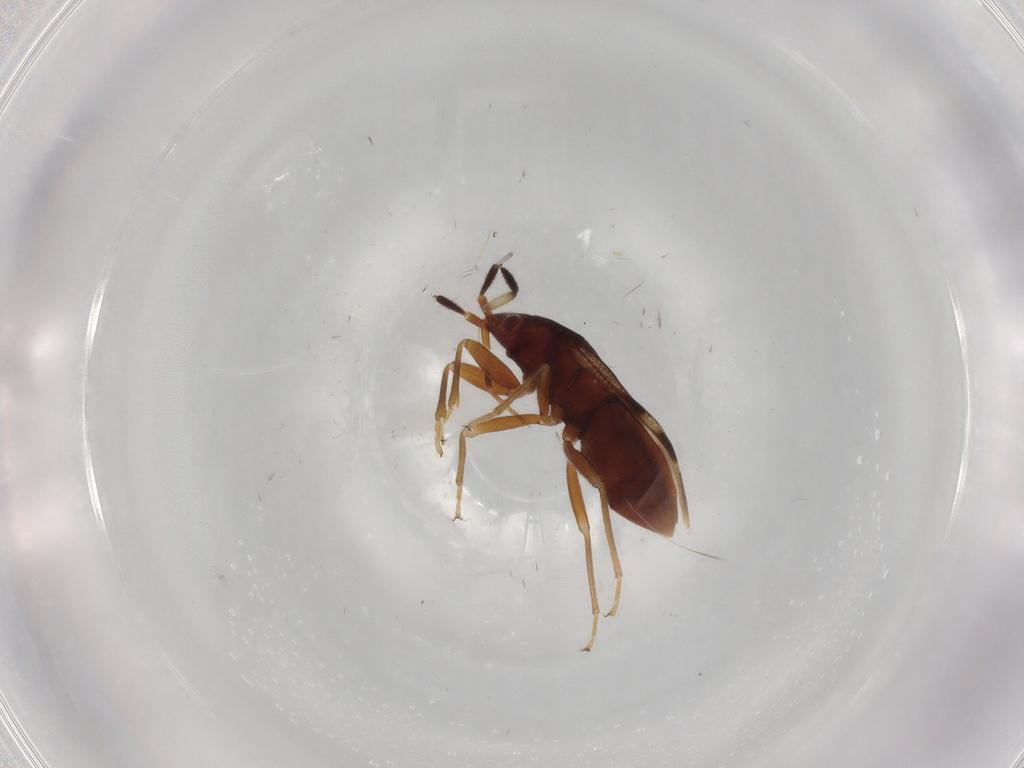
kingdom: Animalia
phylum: Arthropoda
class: Insecta
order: Hemiptera
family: Rhyparochromidae
